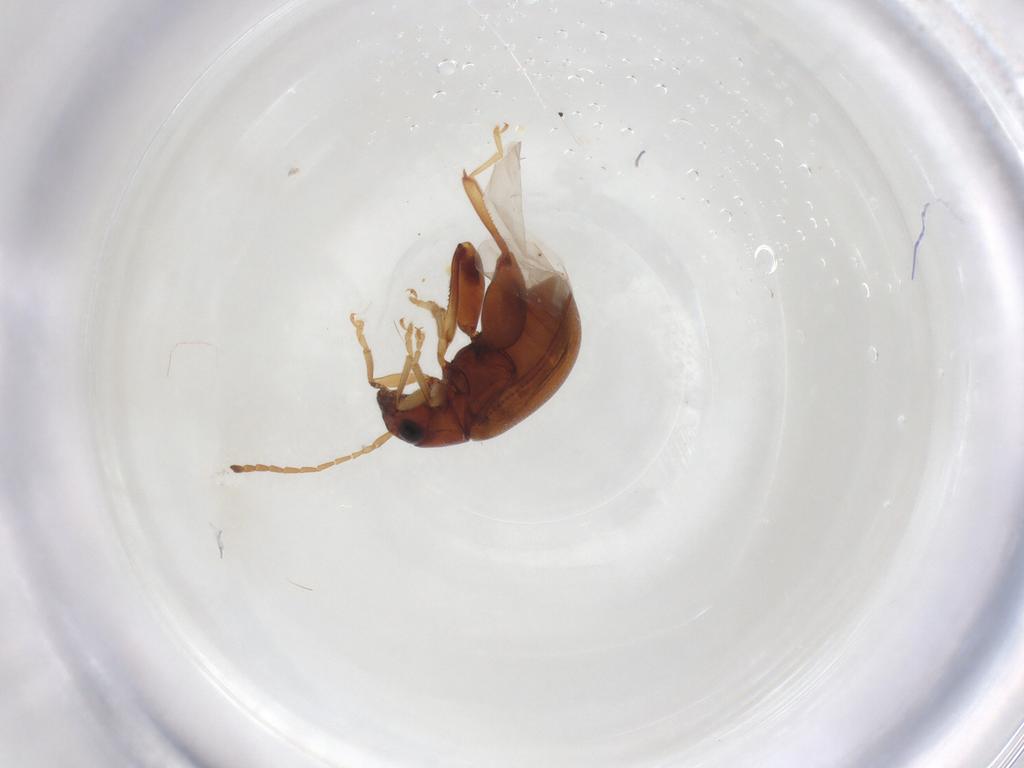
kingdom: Animalia
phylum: Arthropoda
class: Insecta
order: Coleoptera
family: Chrysomelidae
